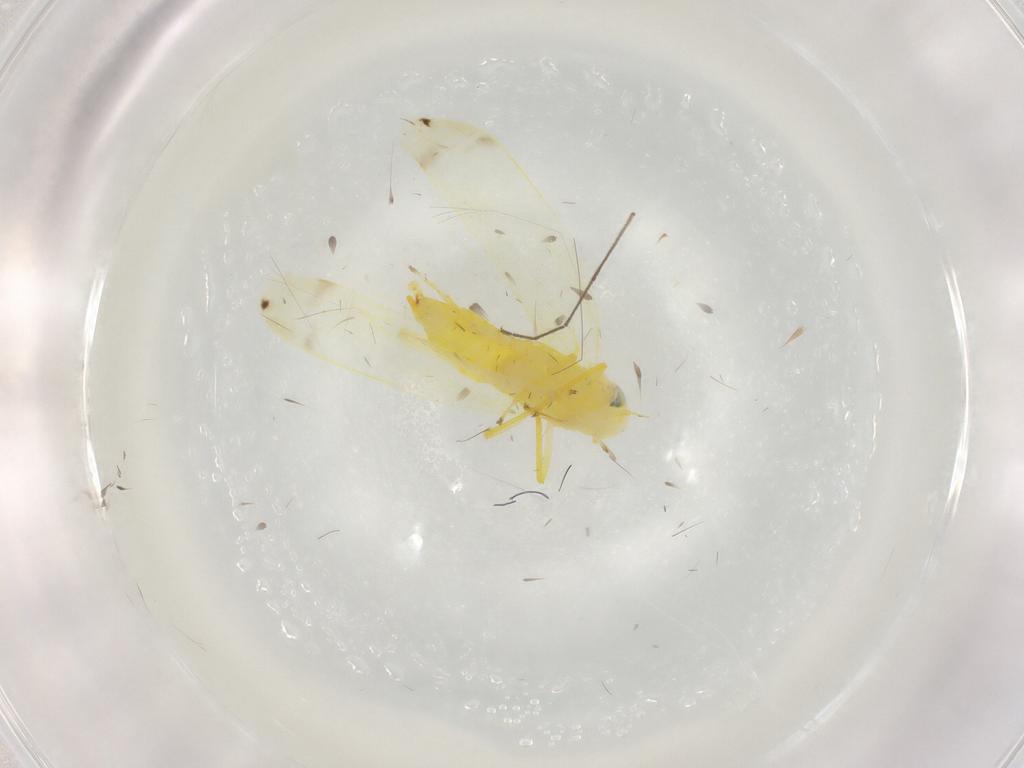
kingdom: Animalia
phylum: Arthropoda
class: Insecta
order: Hemiptera
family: Cicadellidae
